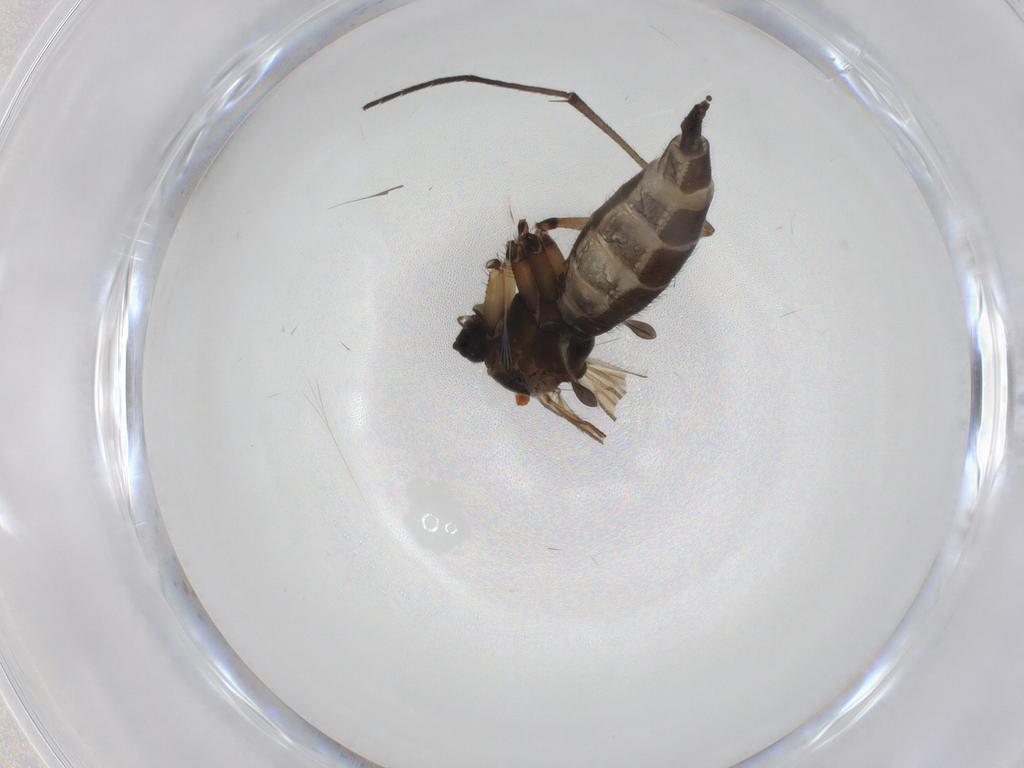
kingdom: Animalia
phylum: Arthropoda
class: Insecta
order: Diptera
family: Sciaridae
